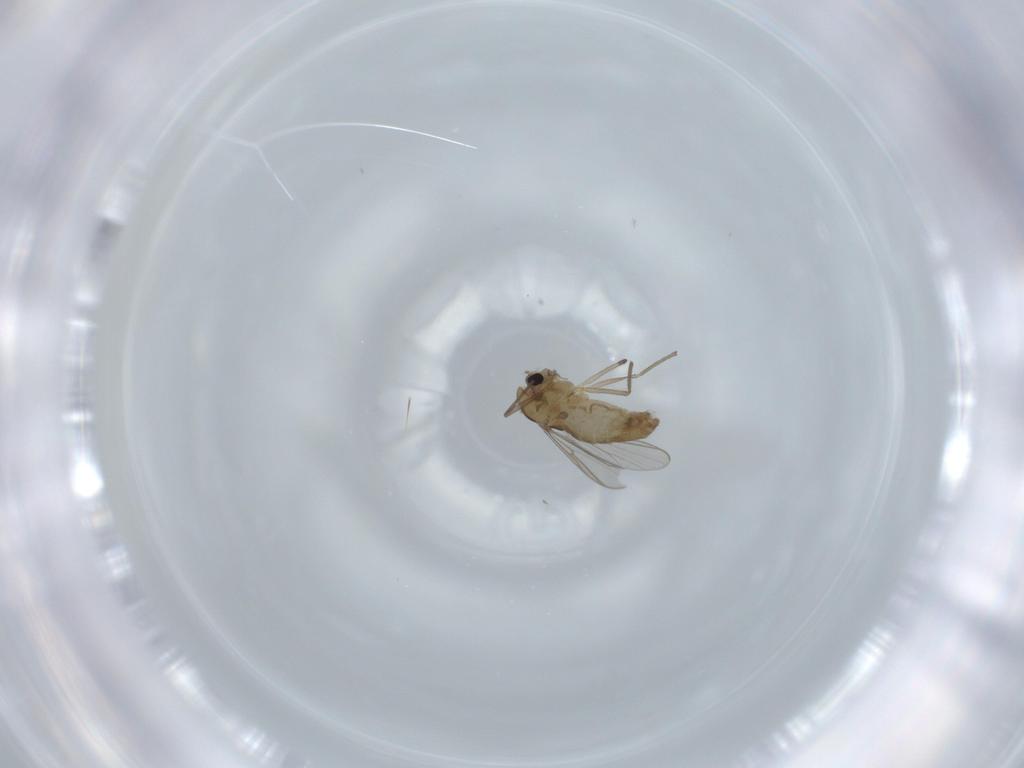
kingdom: Animalia
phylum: Arthropoda
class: Insecta
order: Diptera
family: Chironomidae
